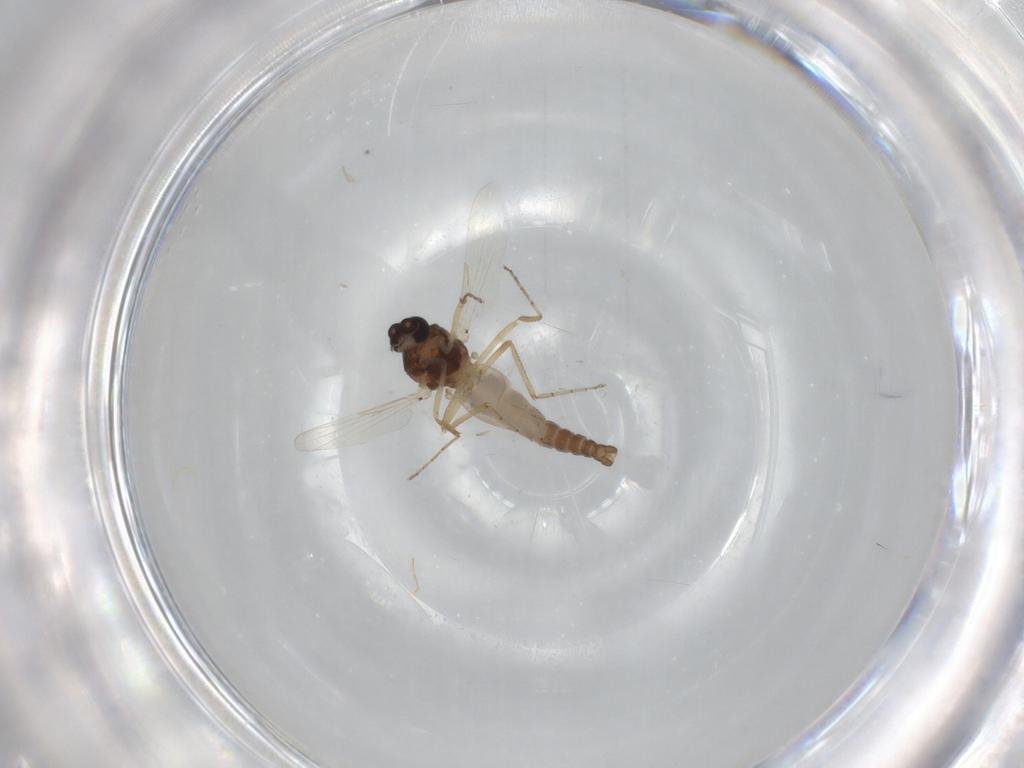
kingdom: Animalia
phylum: Arthropoda
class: Insecta
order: Diptera
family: Ceratopogonidae
